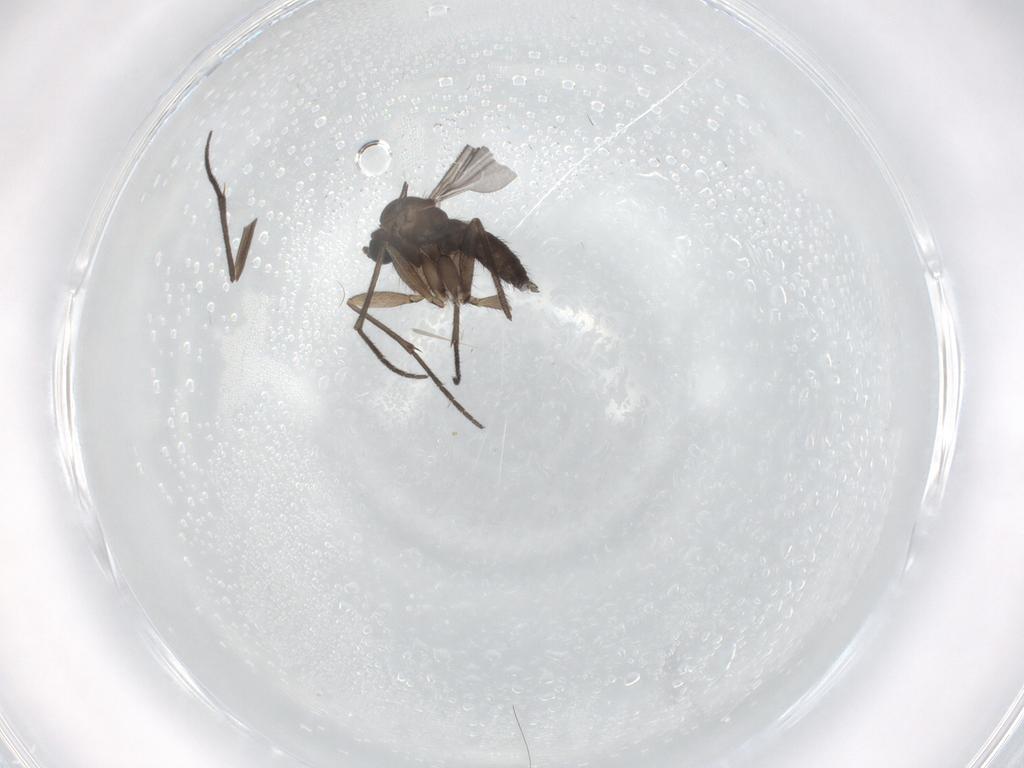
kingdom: Animalia
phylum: Arthropoda
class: Insecta
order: Diptera
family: Sciaridae
